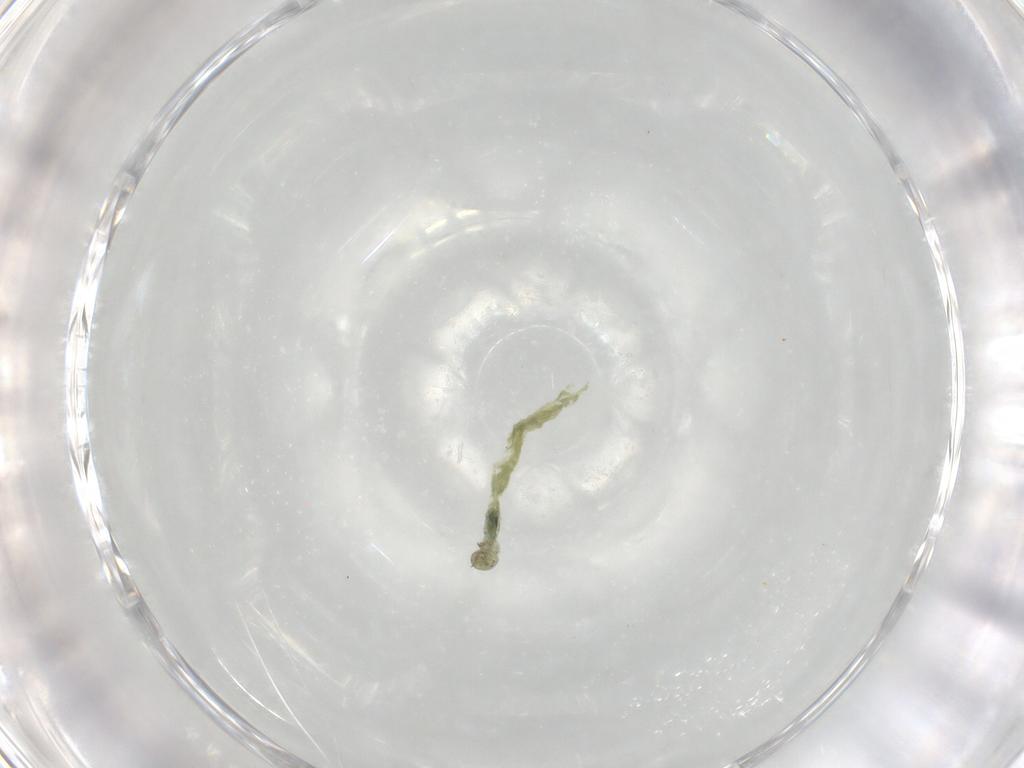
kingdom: Animalia
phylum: Arthropoda
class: Insecta
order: Diptera
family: Chironomidae
